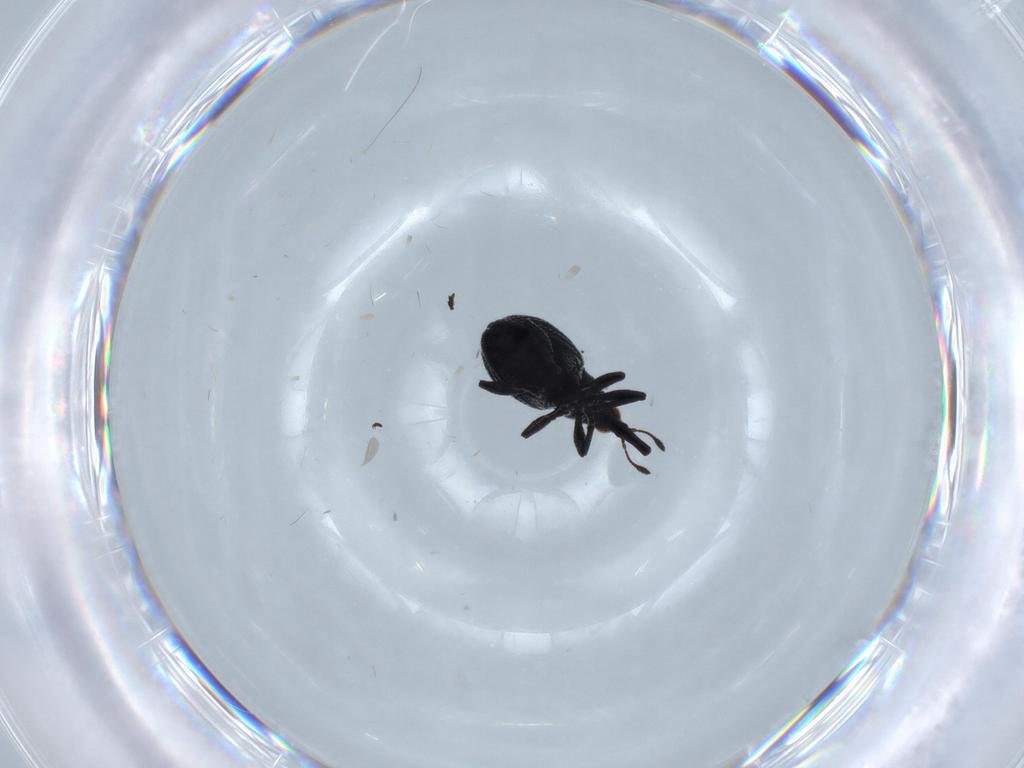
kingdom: Animalia
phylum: Arthropoda
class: Insecta
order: Coleoptera
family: Brentidae
